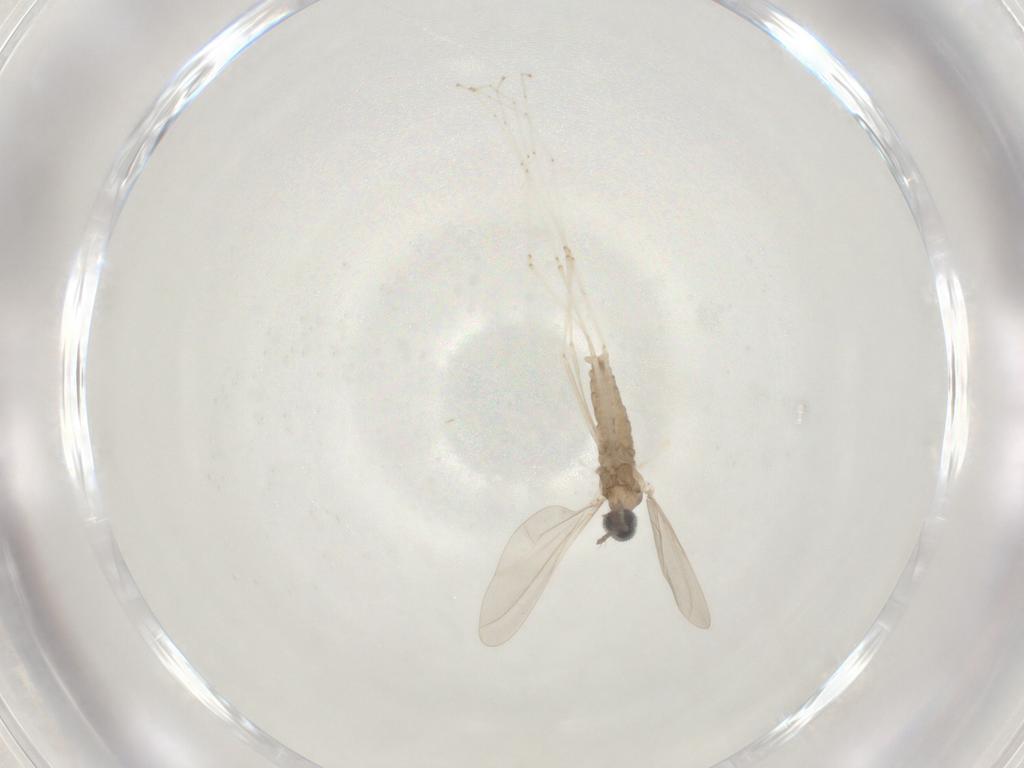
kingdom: Animalia
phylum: Arthropoda
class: Insecta
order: Diptera
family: Cecidomyiidae
